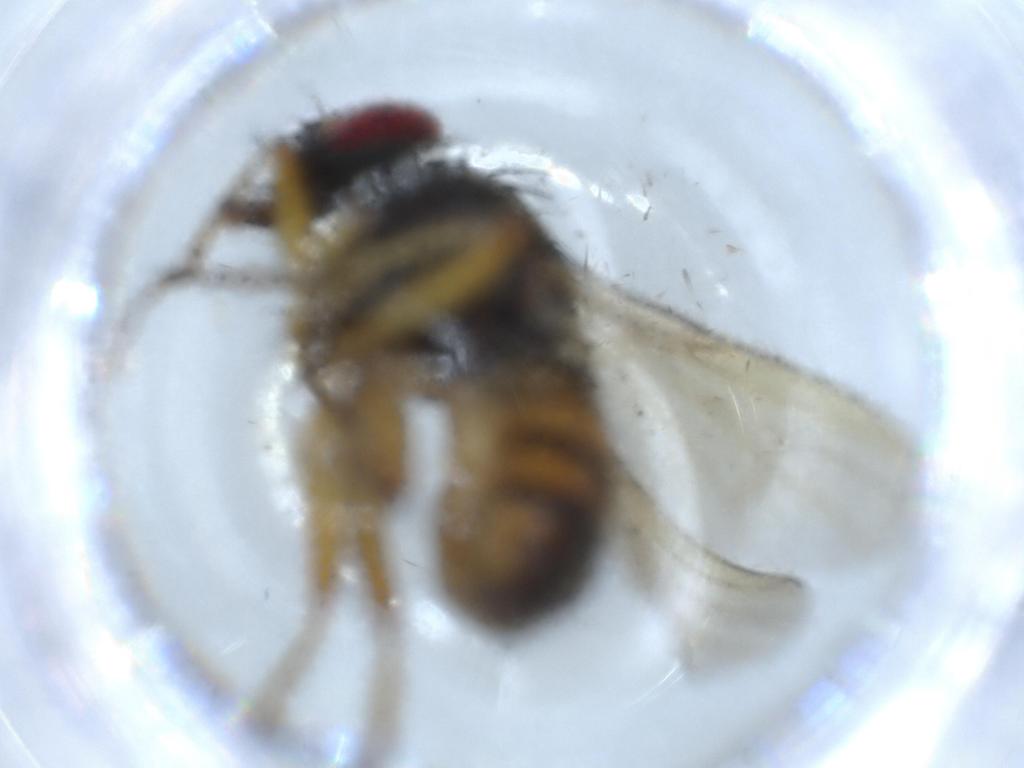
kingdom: Animalia
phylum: Arthropoda
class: Insecta
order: Diptera
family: Muscidae
